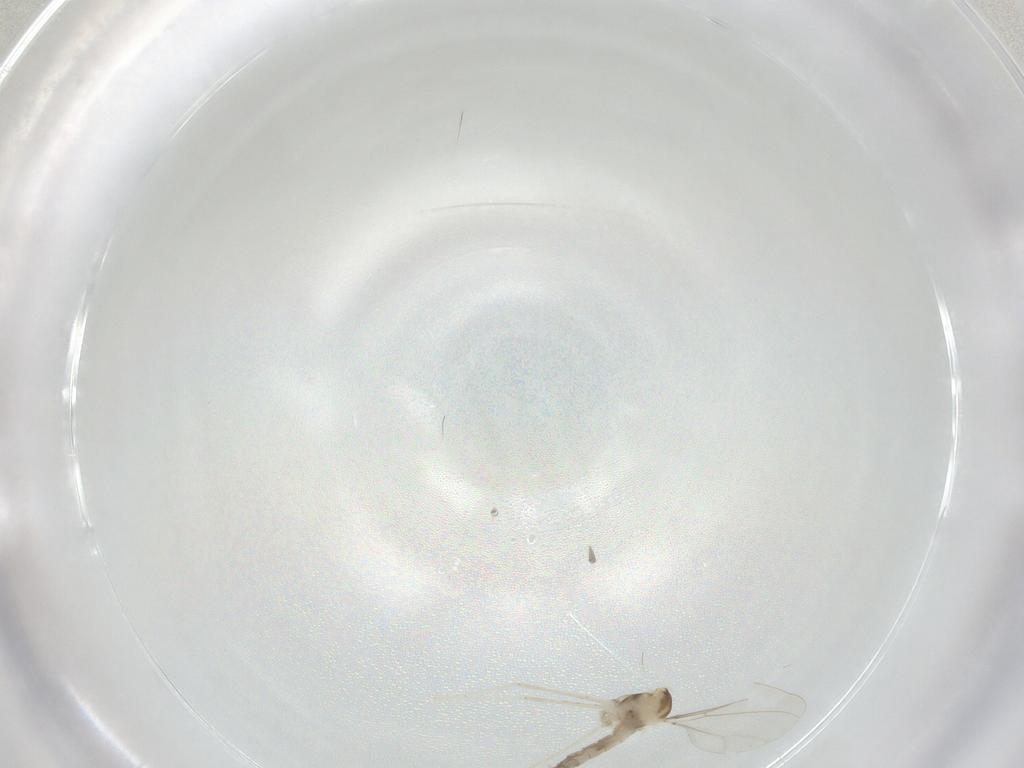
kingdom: Animalia
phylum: Arthropoda
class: Insecta
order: Diptera
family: Cecidomyiidae
